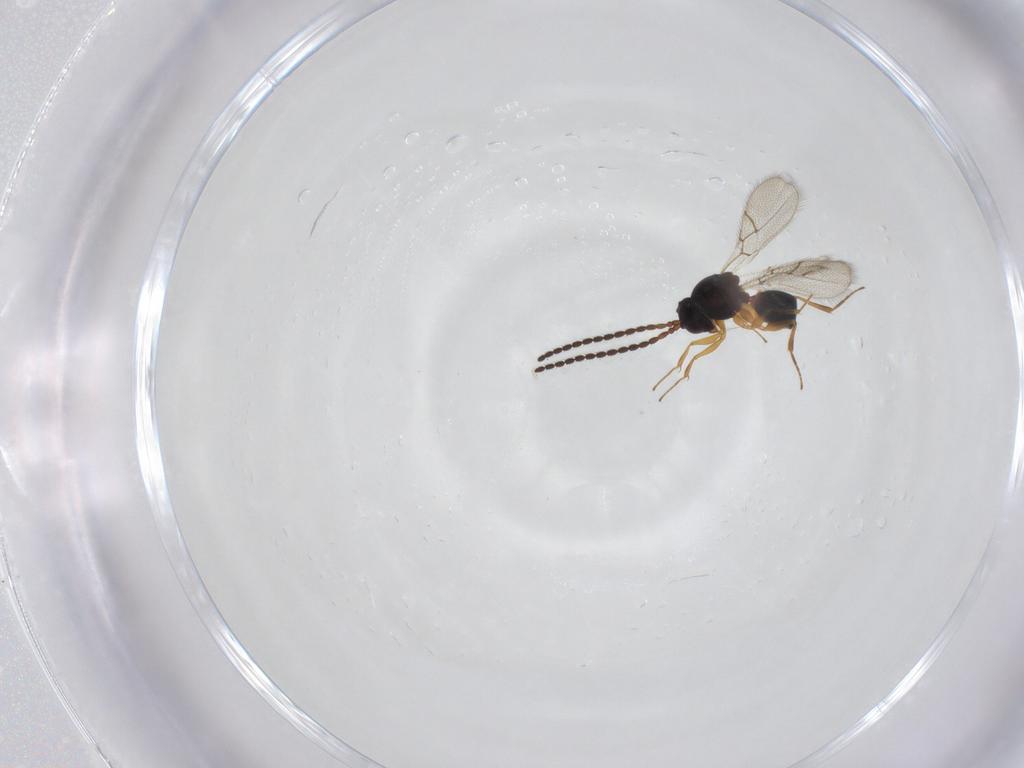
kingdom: Animalia
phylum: Arthropoda
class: Insecta
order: Hymenoptera
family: Figitidae
